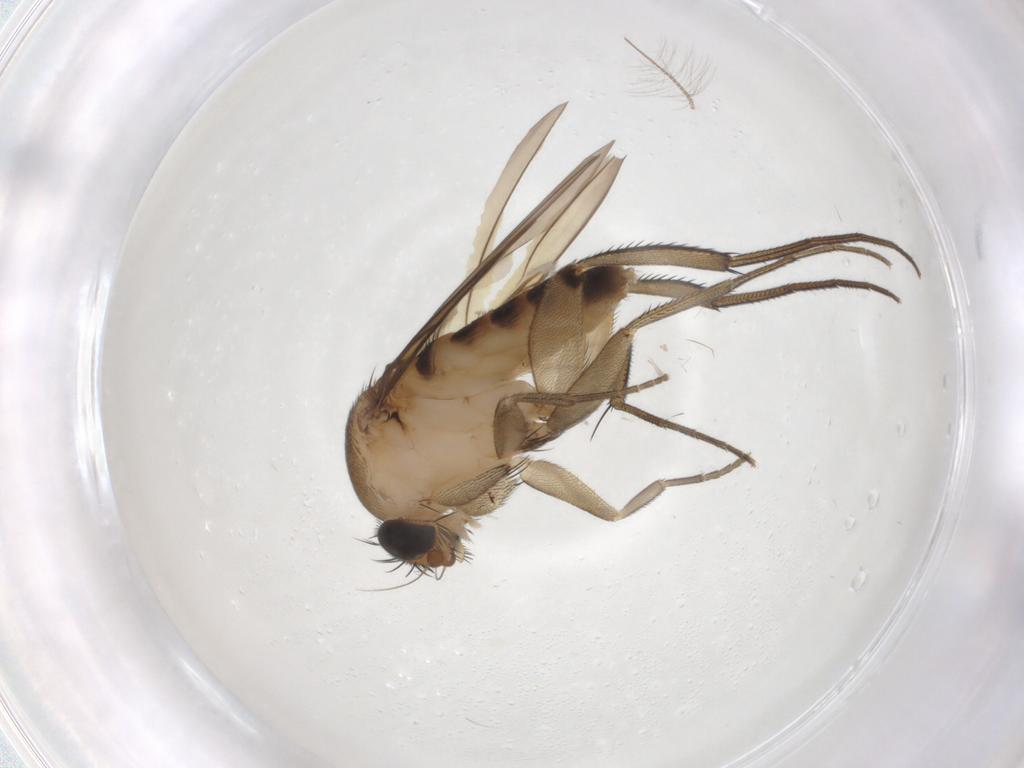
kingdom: Animalia
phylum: Arthropoda
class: Insecta
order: Diptera
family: Phoridae
